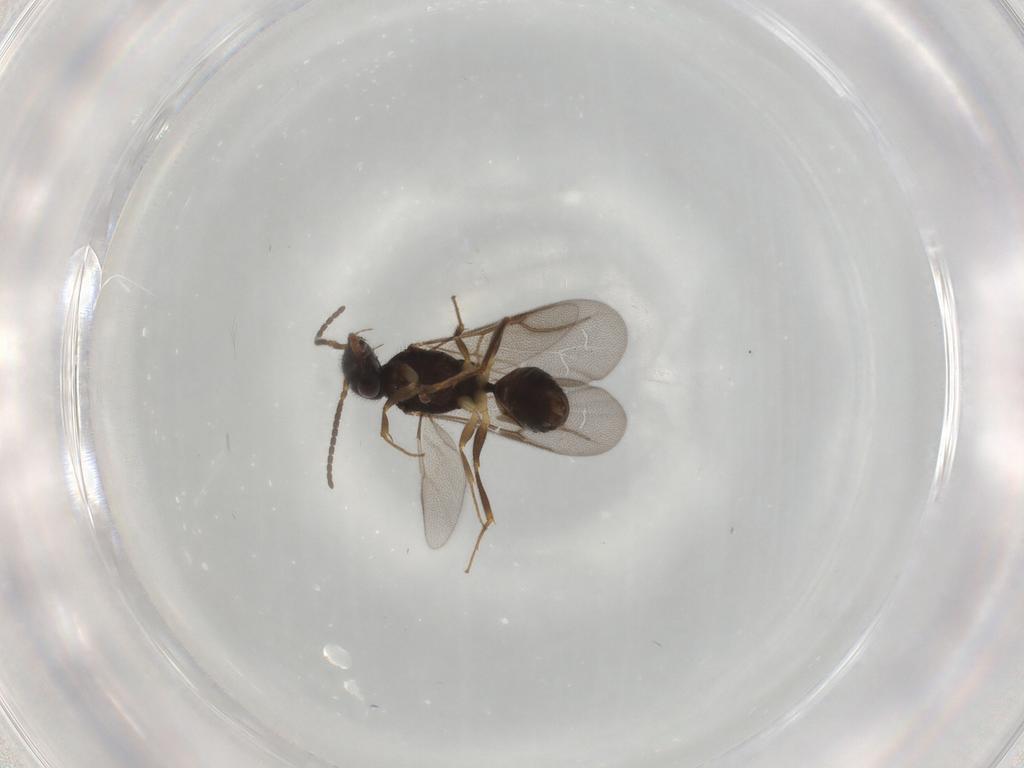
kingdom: Animalia
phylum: Arthropoda
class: Insecta
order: Hymenoptera
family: Bethylidae
